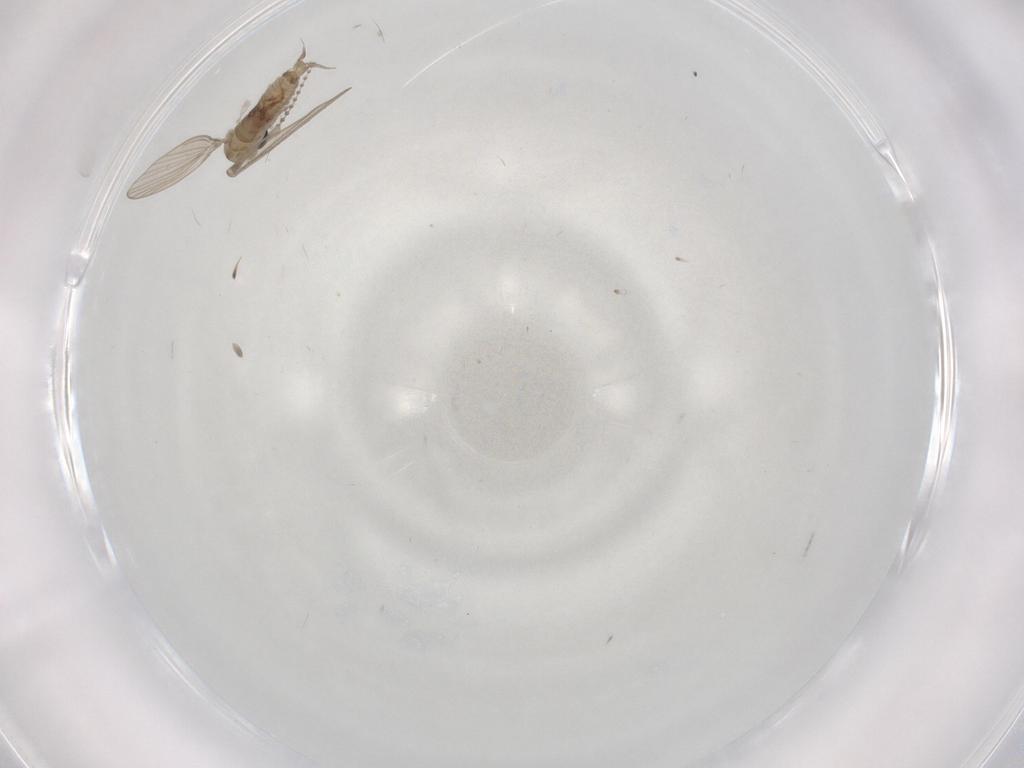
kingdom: Animalia
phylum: Arthropoda
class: Insecta
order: Diptera
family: Psychodidae
